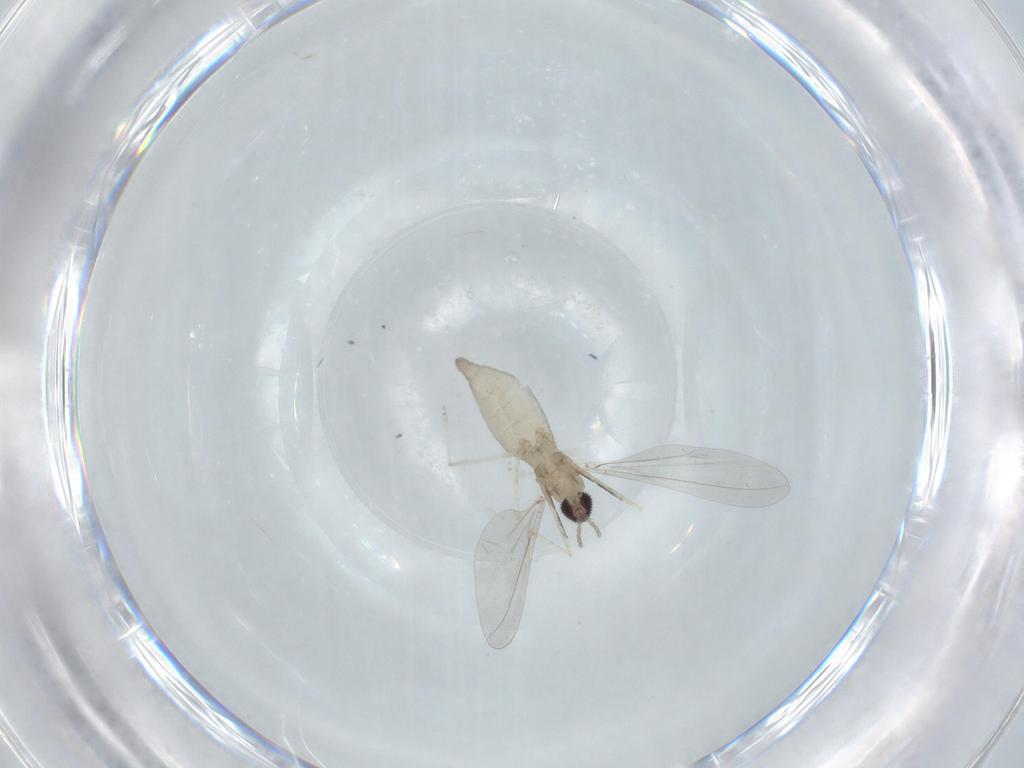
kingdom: Animalia
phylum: Arthropoda
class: Insecta
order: Diptera
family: Cecidomyiidae
